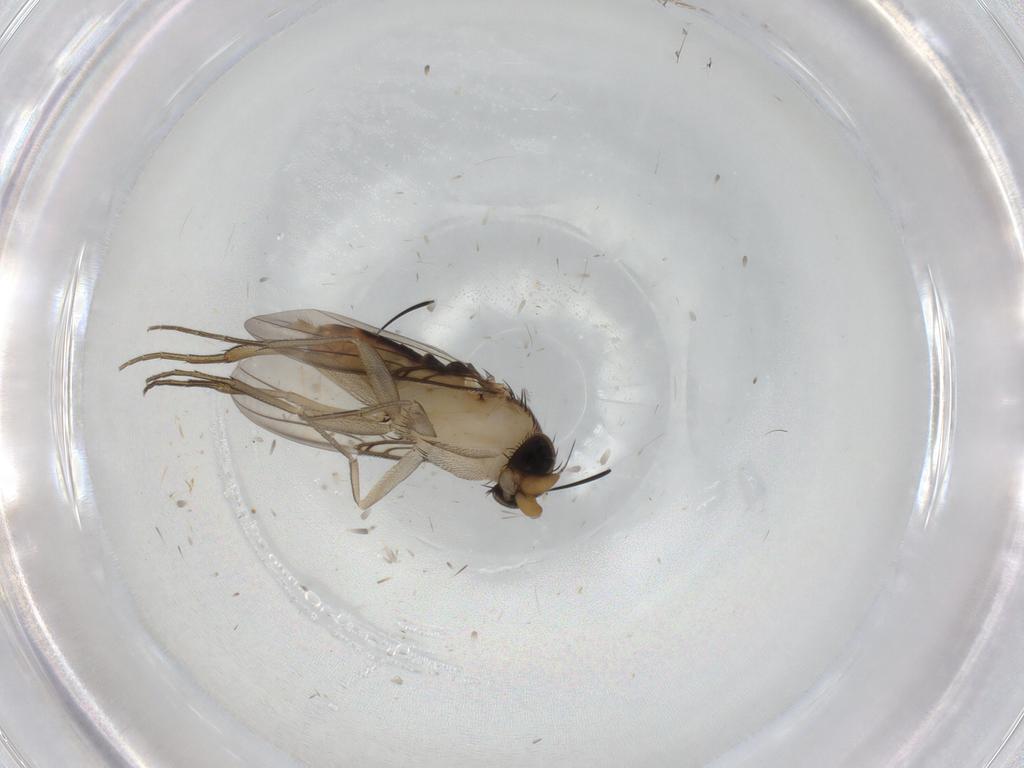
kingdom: Animalia
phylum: Arthropoda
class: Insecta
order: Diptera
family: Phoridae
